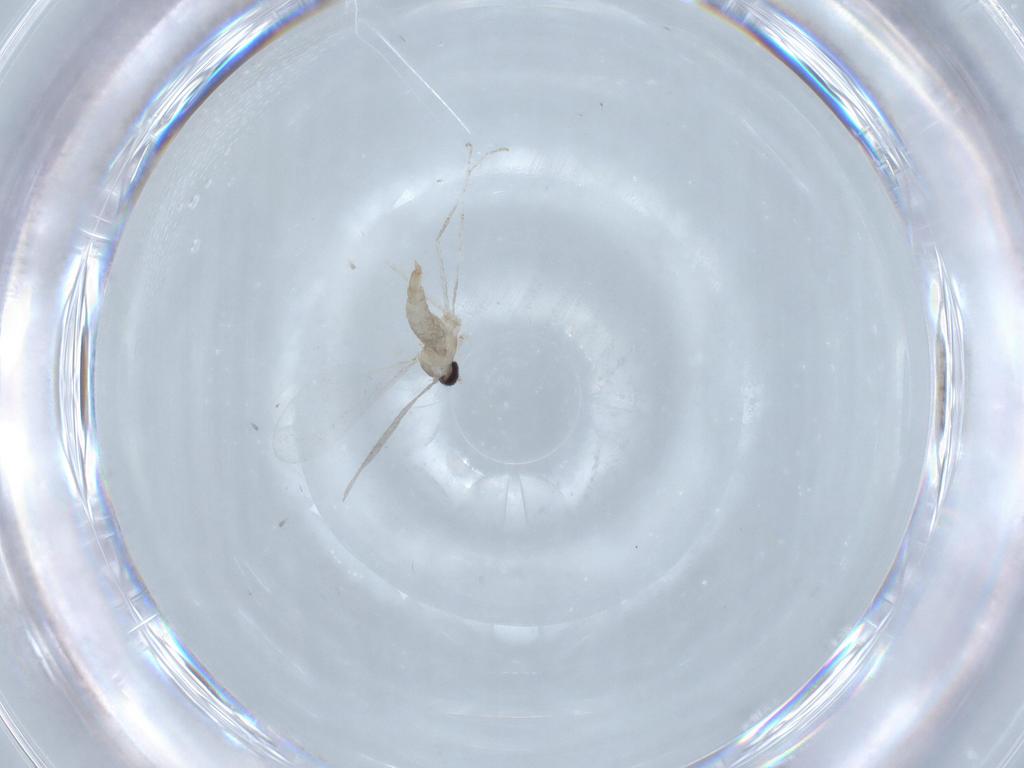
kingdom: Animalia
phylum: Arthropoda
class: Insecta
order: Diptera
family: Cecidomyiidae
